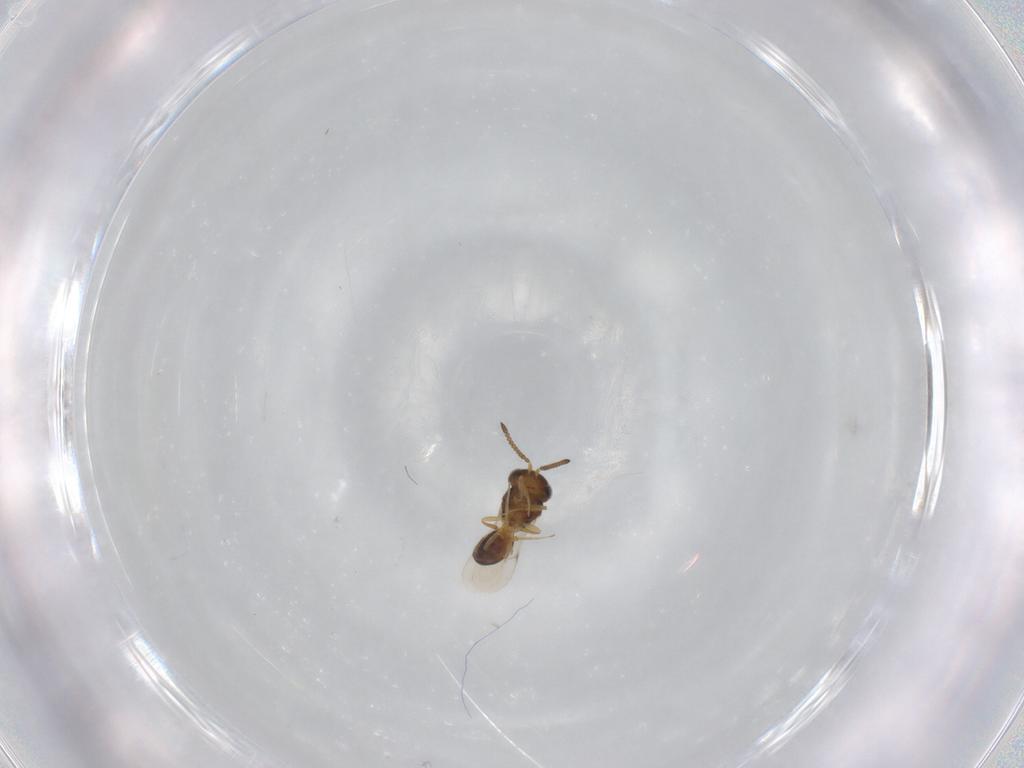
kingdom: Animalia
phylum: Arthropoda
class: Insecta
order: Hymenoptera
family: Scelionidae
